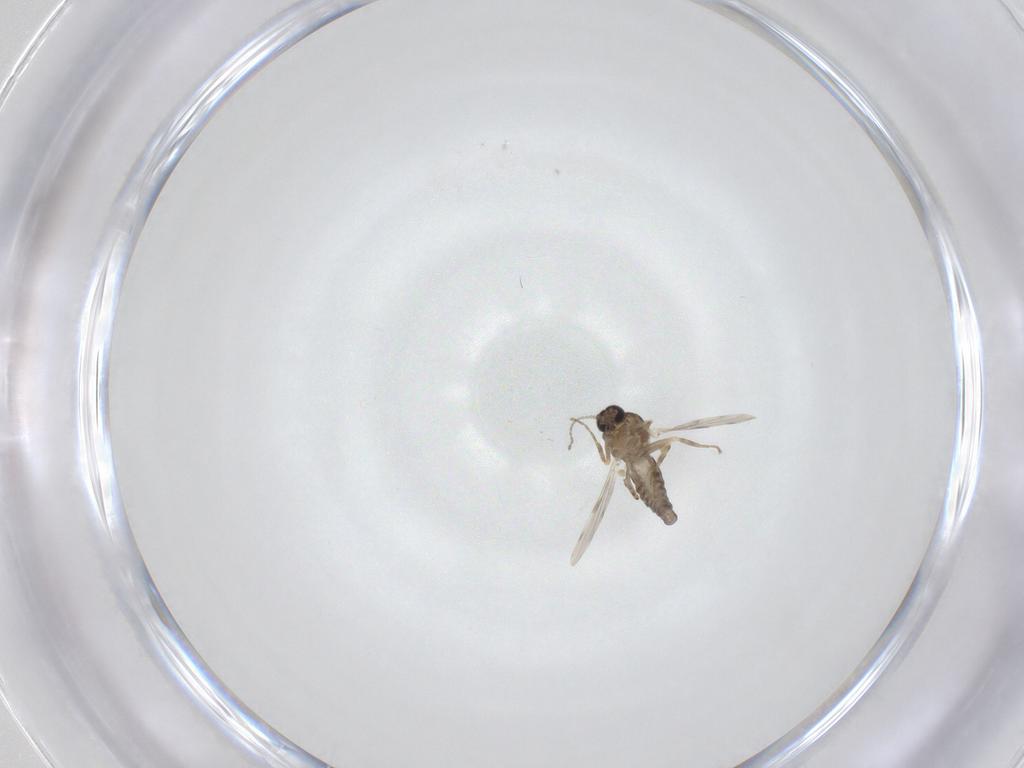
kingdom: Animalia
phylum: Arthropoda
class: Insecta
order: Diptera
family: Ceratopogonidae
